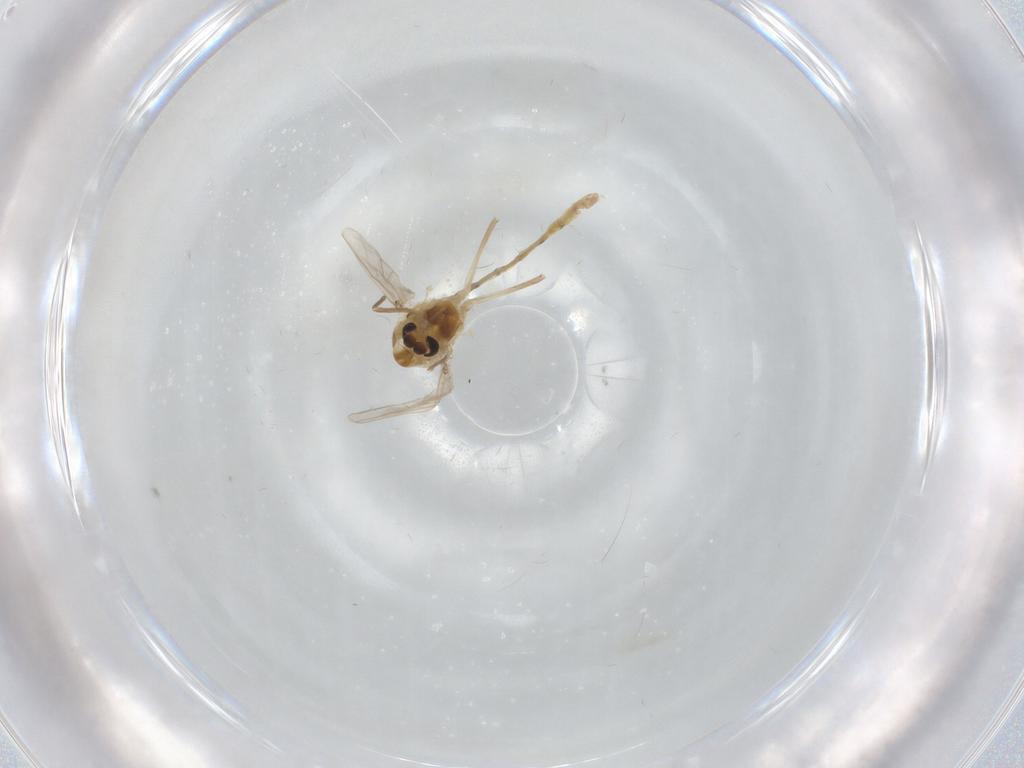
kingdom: Animalia
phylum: Arthropoda
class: Insecta
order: Diptera
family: Chironomidae
